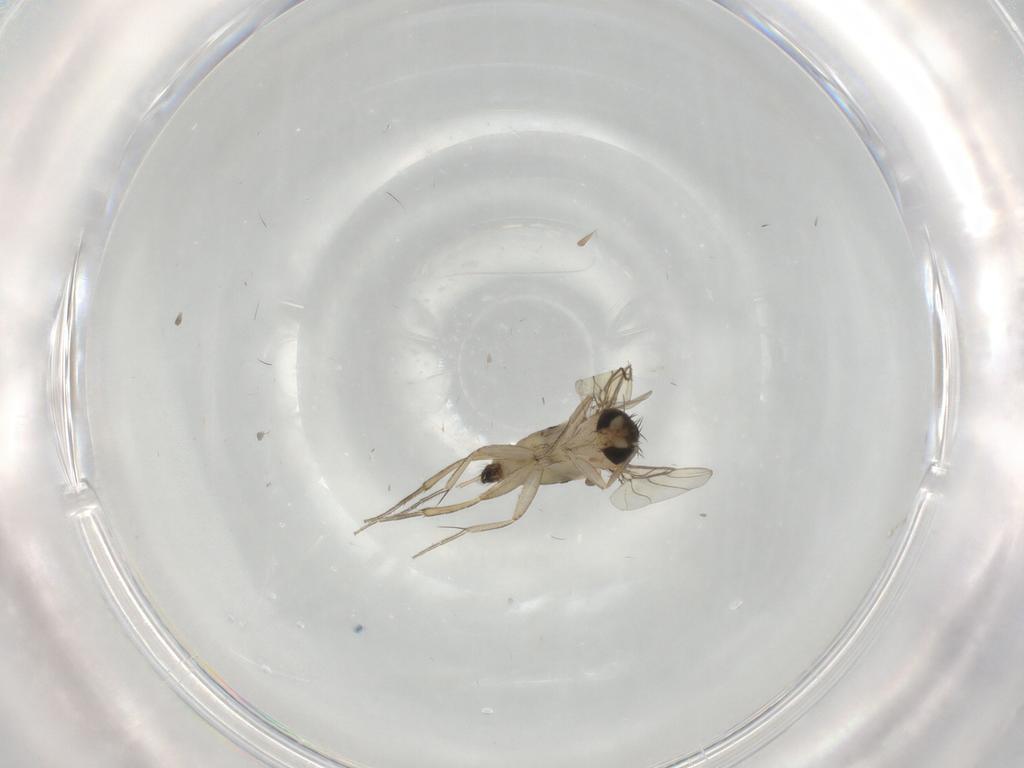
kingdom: Animalia
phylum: Arthropoda
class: Insecta
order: Diptera
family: Phoridae
